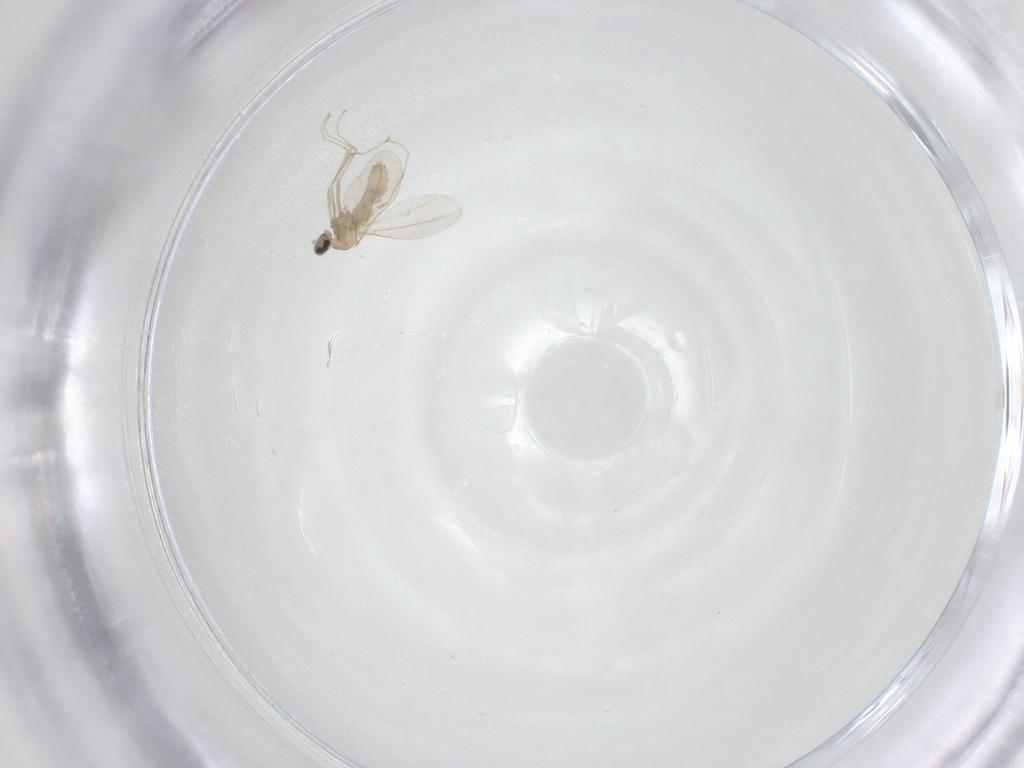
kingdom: Animalia
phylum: Arthropoda
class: Insecta
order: Diptera
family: Cecidomyiidae
